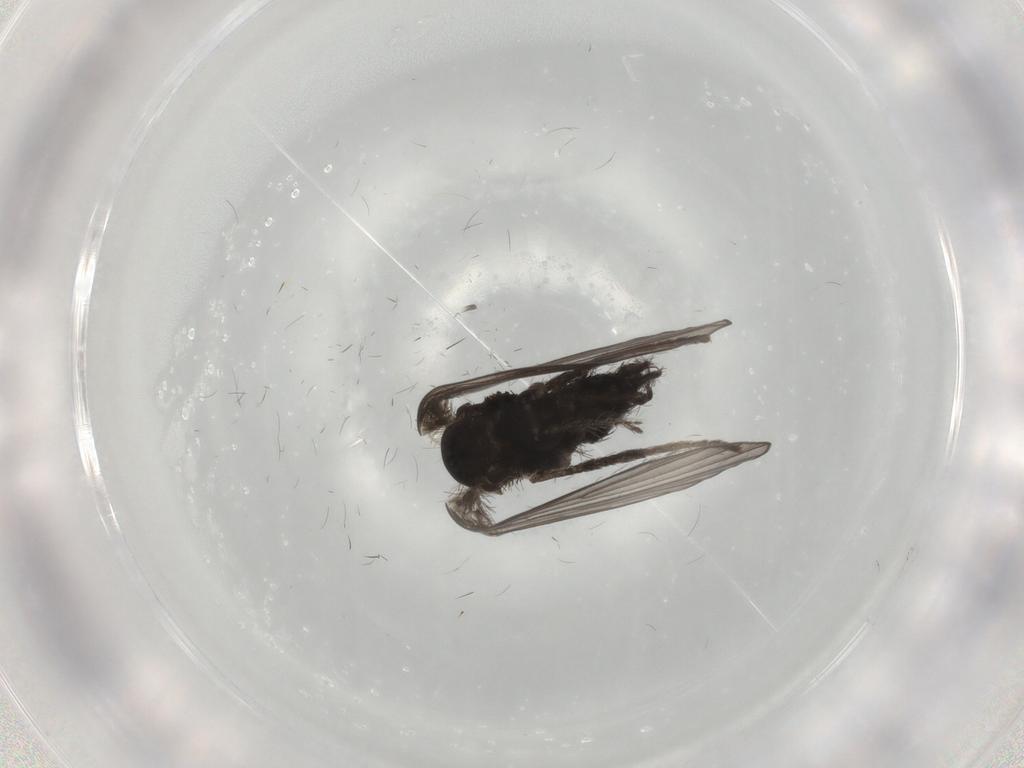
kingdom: Animalia
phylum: Arthropoda
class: Insecta
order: Diptera
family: Psychodidae
